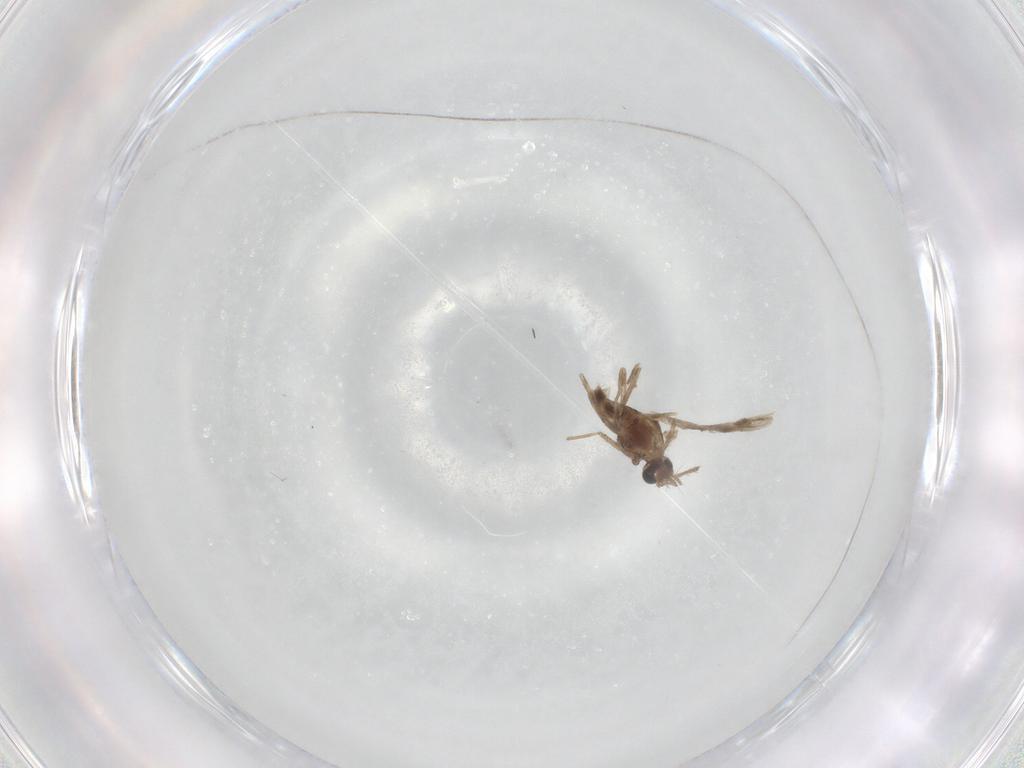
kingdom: Animalia
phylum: Arthropoda
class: Insecta
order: Diptera
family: Chironomidae
